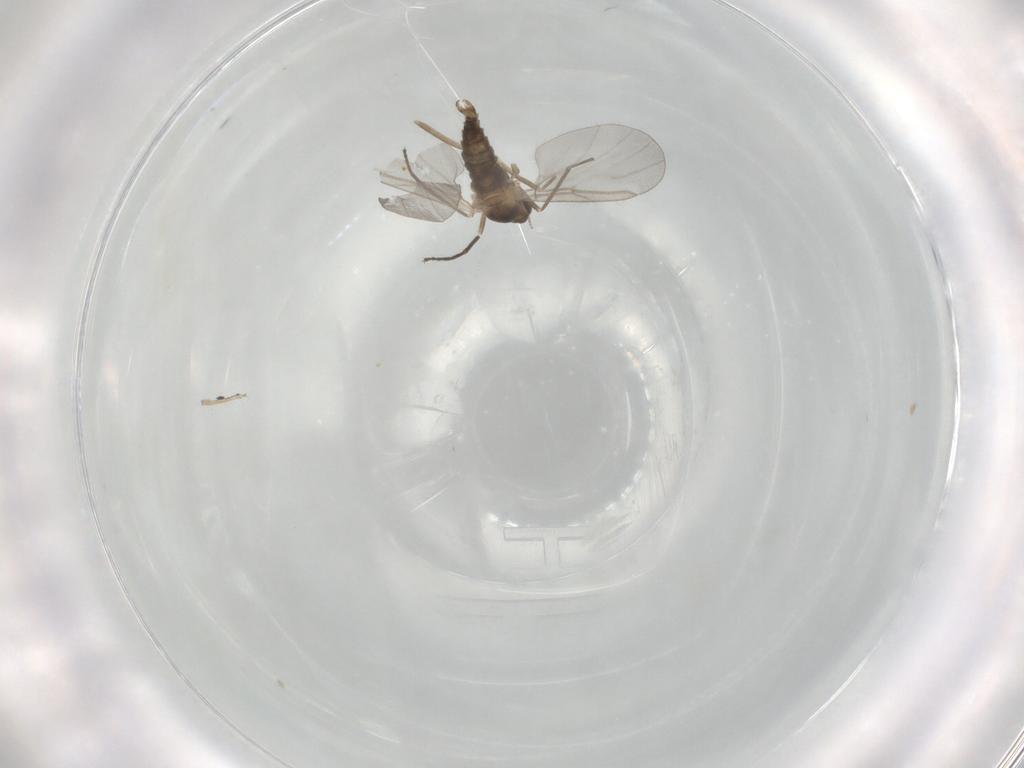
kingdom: Animalia
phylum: Arthropoda
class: Insecta
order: Diptera
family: Cecidomyiidae
